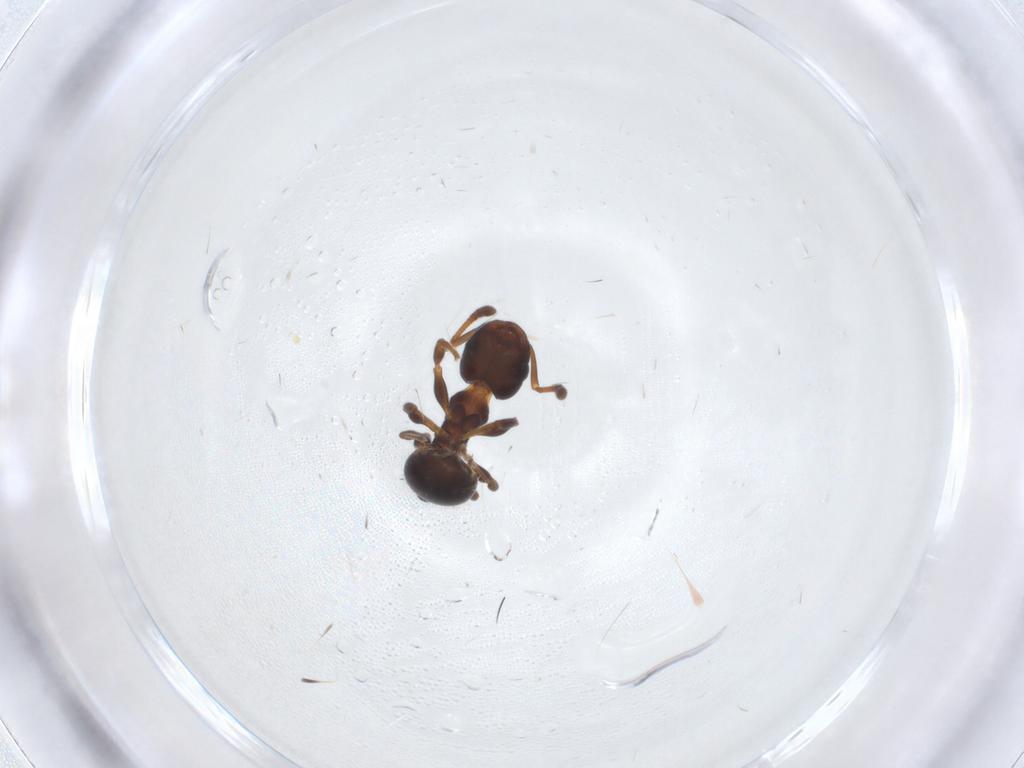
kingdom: Animalia
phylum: Arthropoda
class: Insecta
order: Hymenoptera
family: Formicidae
